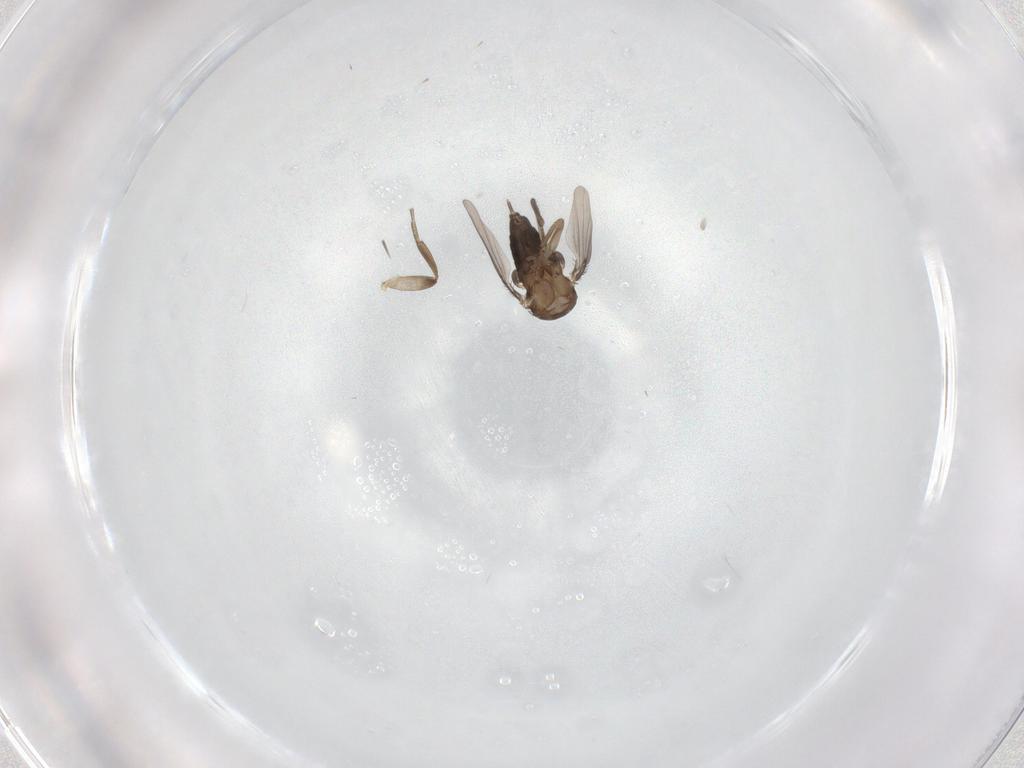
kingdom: Animalia
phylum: Arthropoda
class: Insecta
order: Diptera
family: Phoridae
